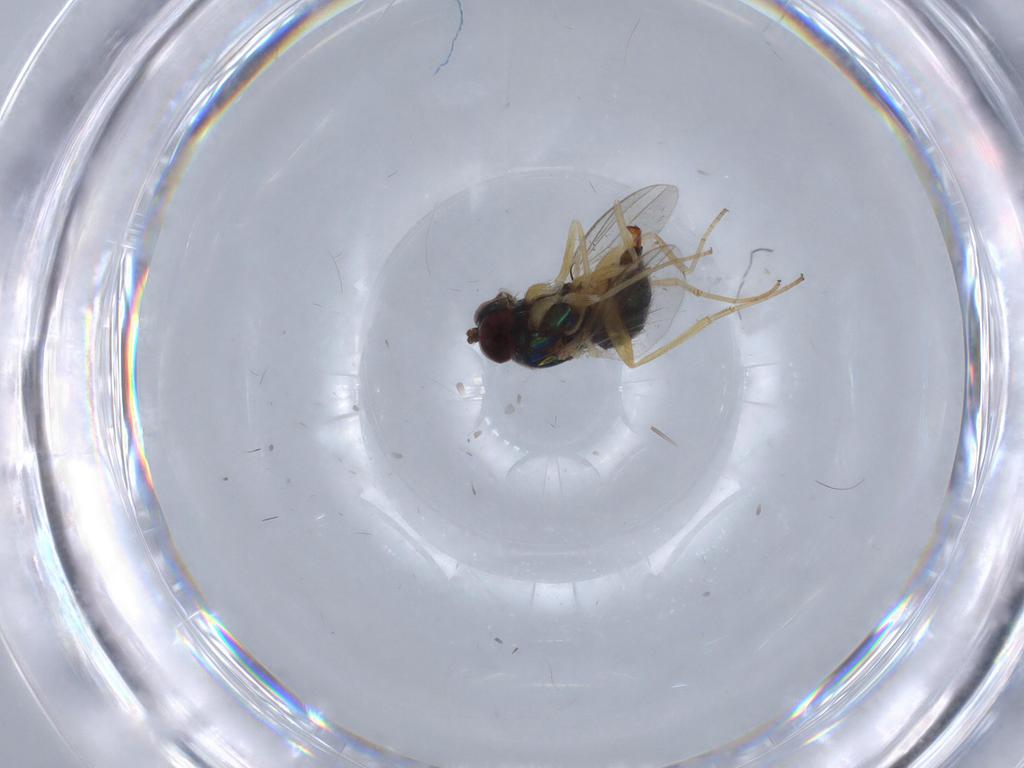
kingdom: Animalia
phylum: Arthropoda
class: Insecta
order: Diptera
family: Dolichopodidae
